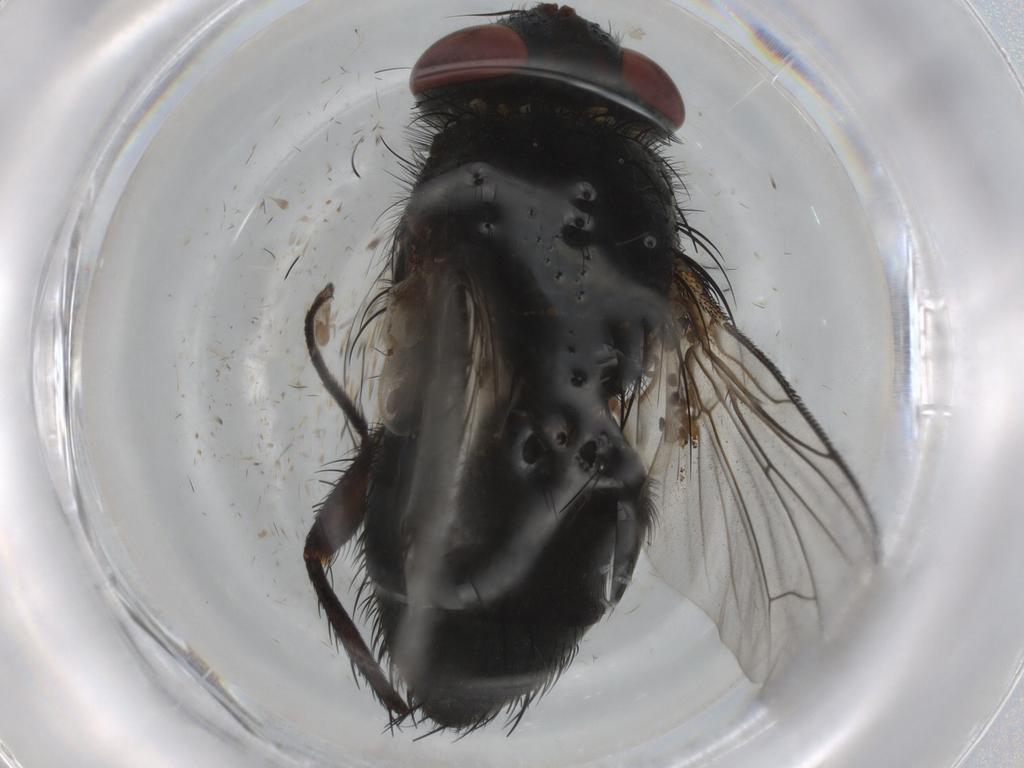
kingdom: Animalia
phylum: Arthropoda
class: Insecta
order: Diptera
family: Tachinidae
